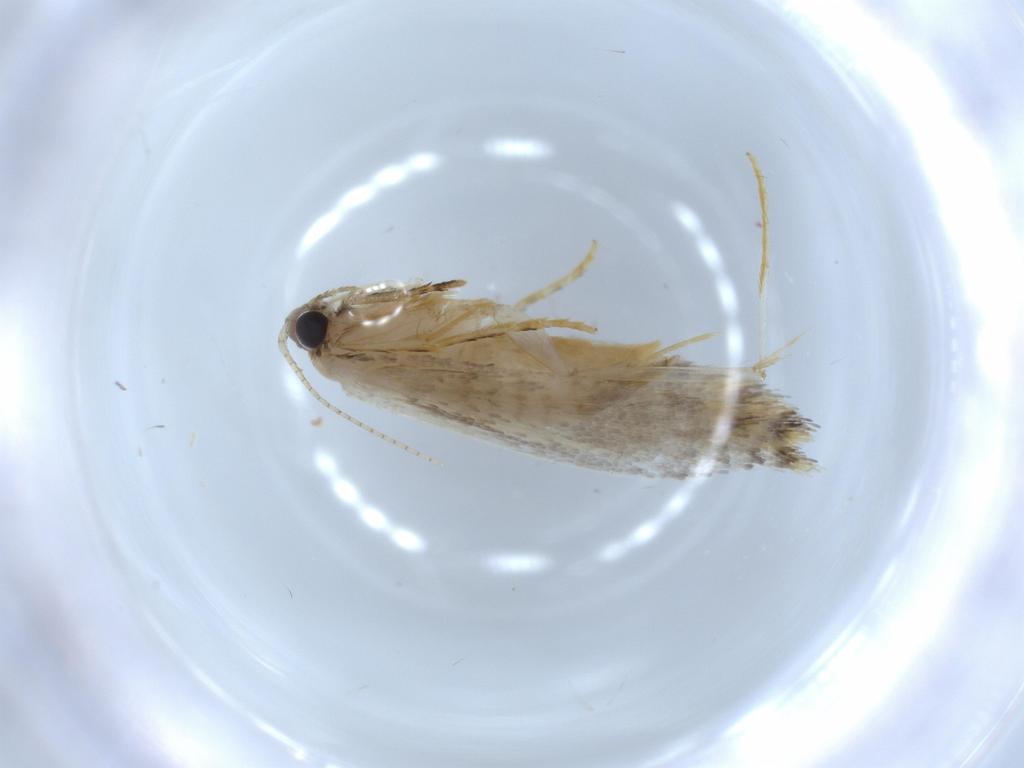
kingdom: Animalia
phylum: Arthropoda
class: Insecta
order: Lepidoptera
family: Tineidae
